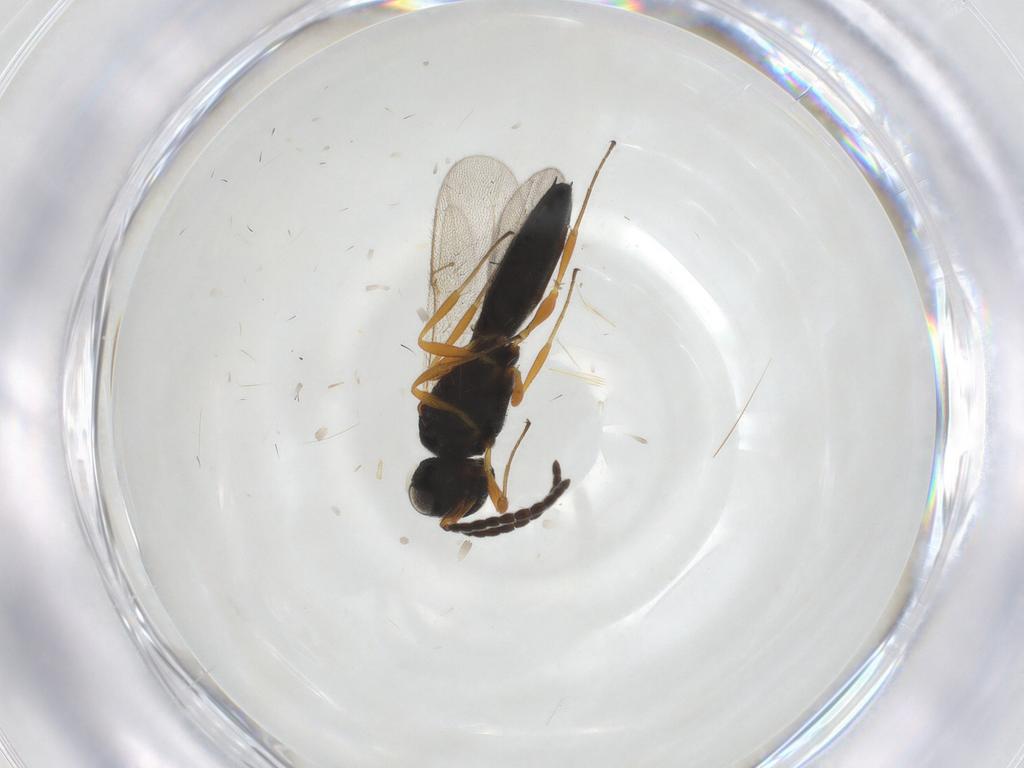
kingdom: Animalia
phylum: Arthropoda
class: Insecta
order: Hymenoptera
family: Scelionidae
